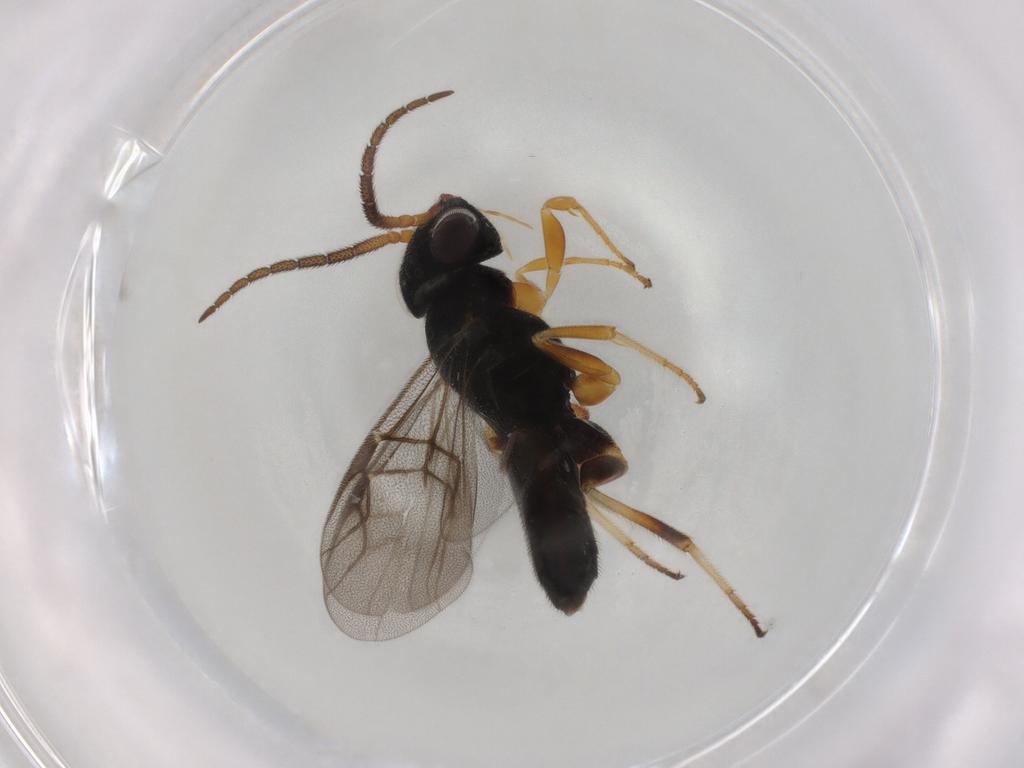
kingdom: Animalia
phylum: Arthropoda
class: Insecta
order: Hymenoptera
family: Dryinidae
